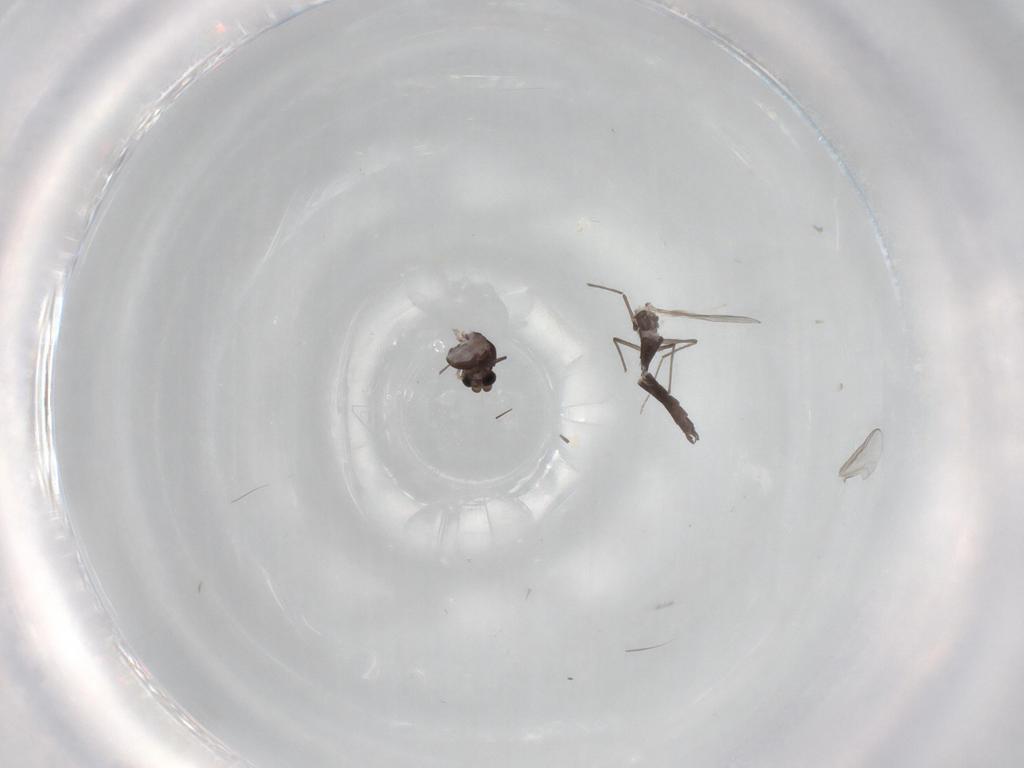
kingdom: Animalia
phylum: Arthropoda
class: Insecta
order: Diptera
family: Chironomidae
